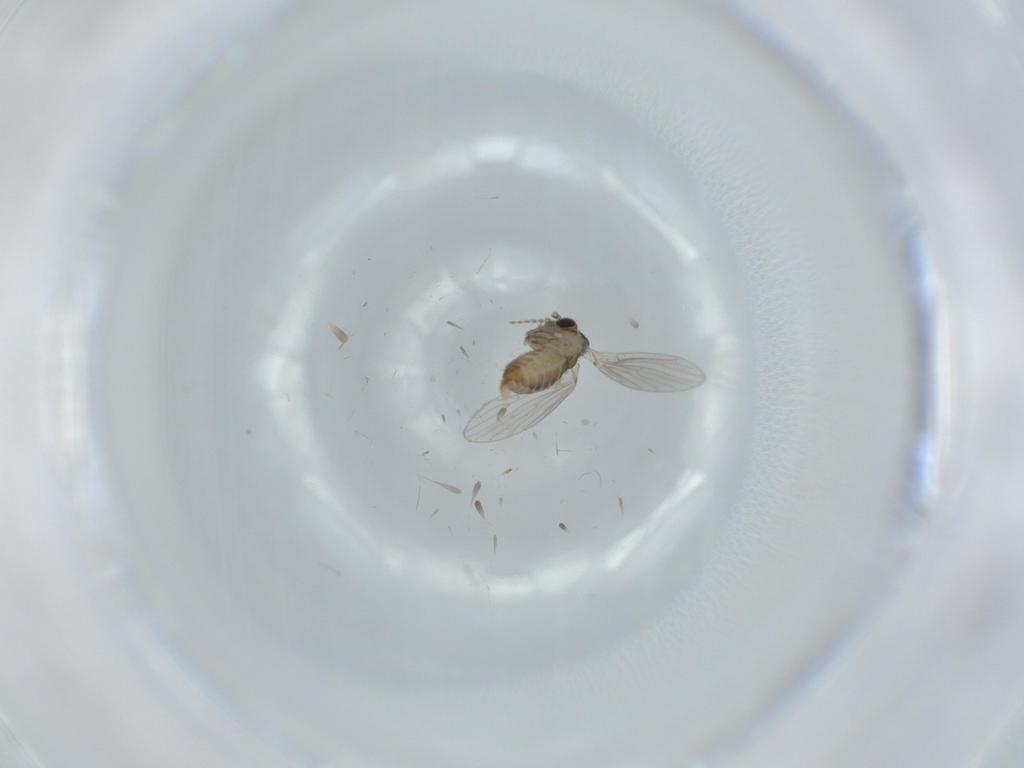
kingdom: Animalia
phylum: Arthropoda
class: Insecta
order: Diptera
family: Psychodidae
